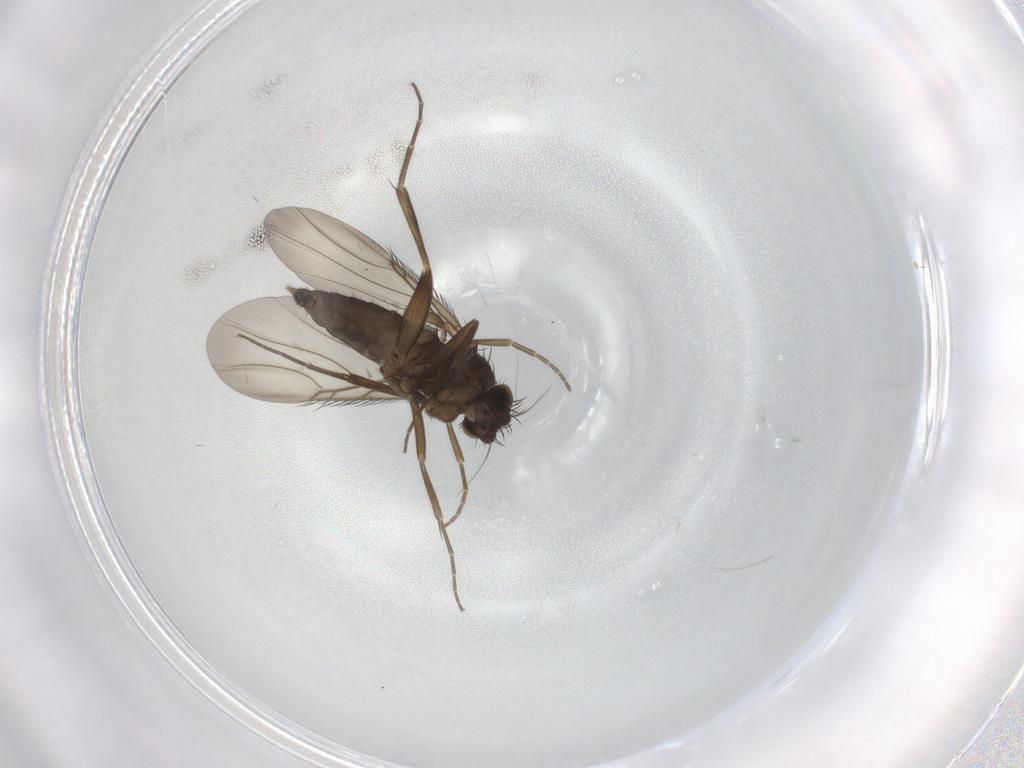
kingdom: Animalia
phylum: Arthropoda
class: Insecta
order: Diptera
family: Phoridae
